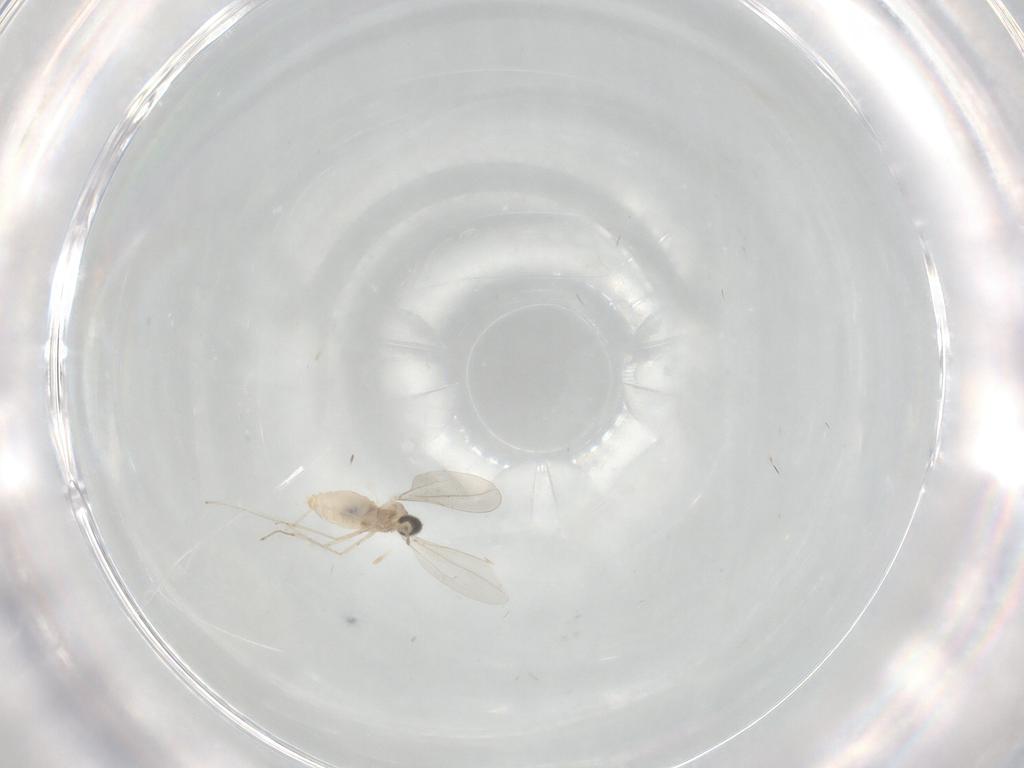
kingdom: Animalia
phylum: Arthropoda
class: Insecta
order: Diptera
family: Cecidomyiidae
